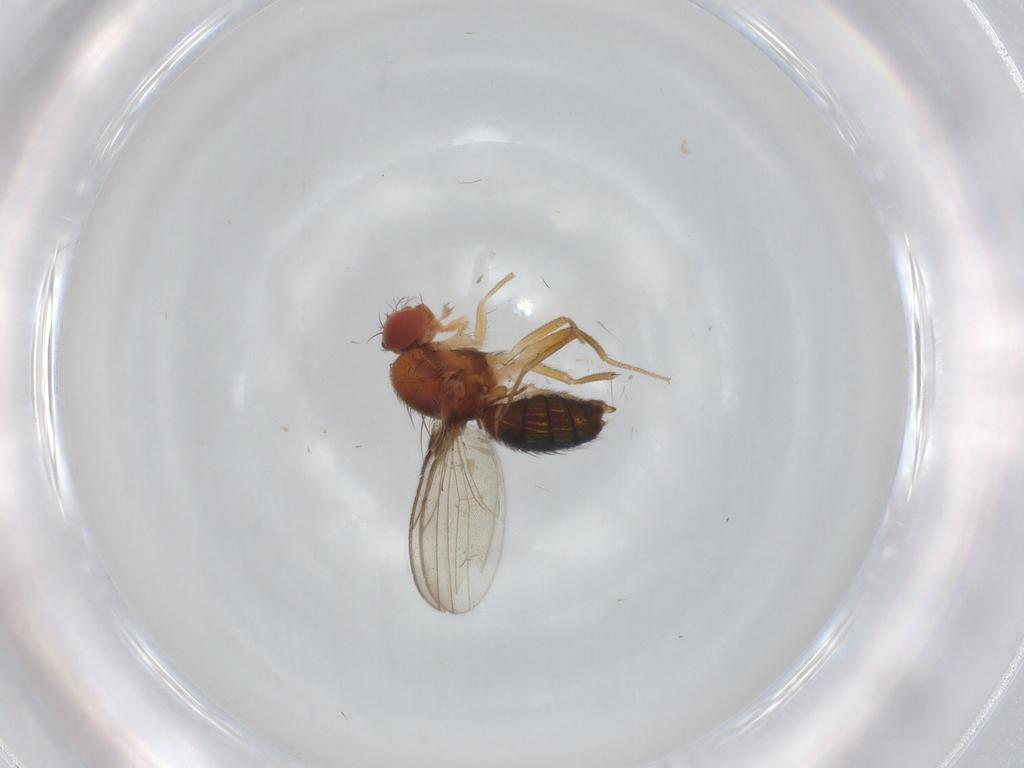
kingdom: Animalia
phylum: Arthropoda
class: Insecta
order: Diptera
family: Drosophilidae
